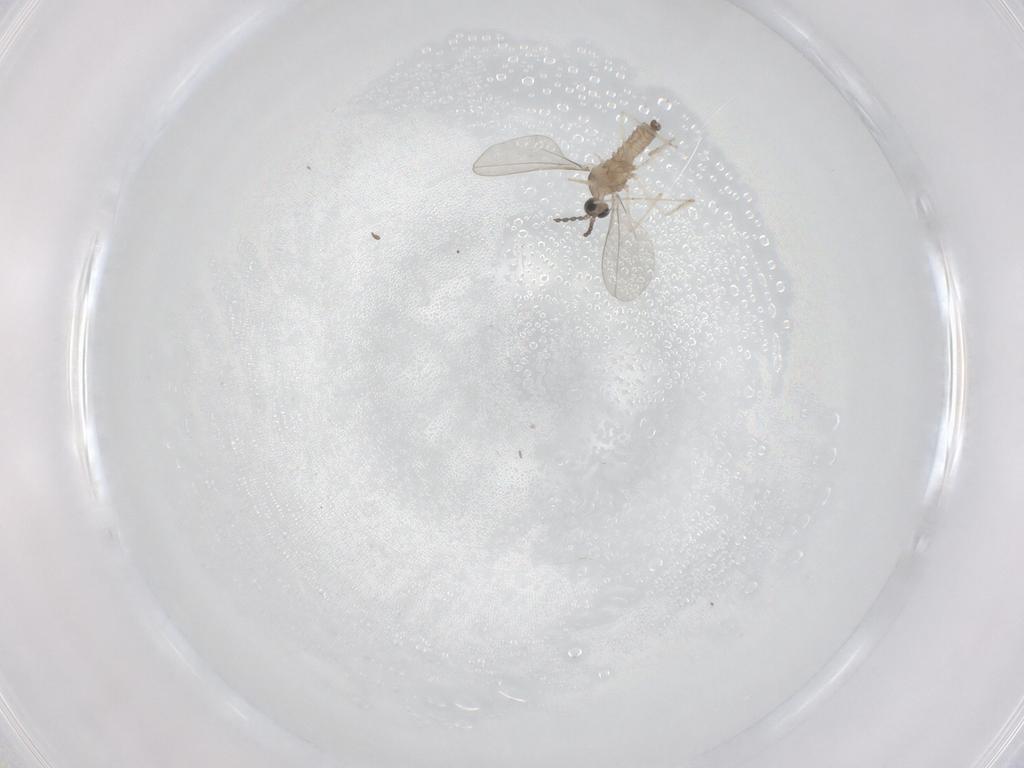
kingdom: Animalia
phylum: Arthropoda
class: Insecta
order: Diptera
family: Cecidomyiidae
